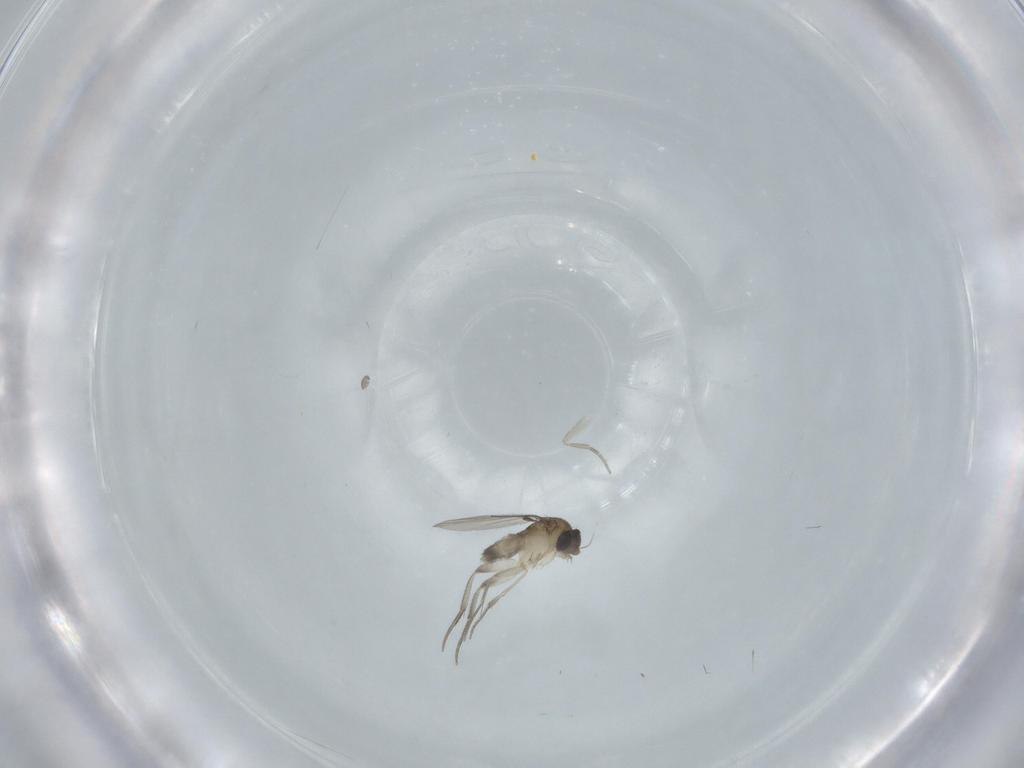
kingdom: Animalia
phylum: Arthropoda
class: Insecta
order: Diptera
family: Phoridae
